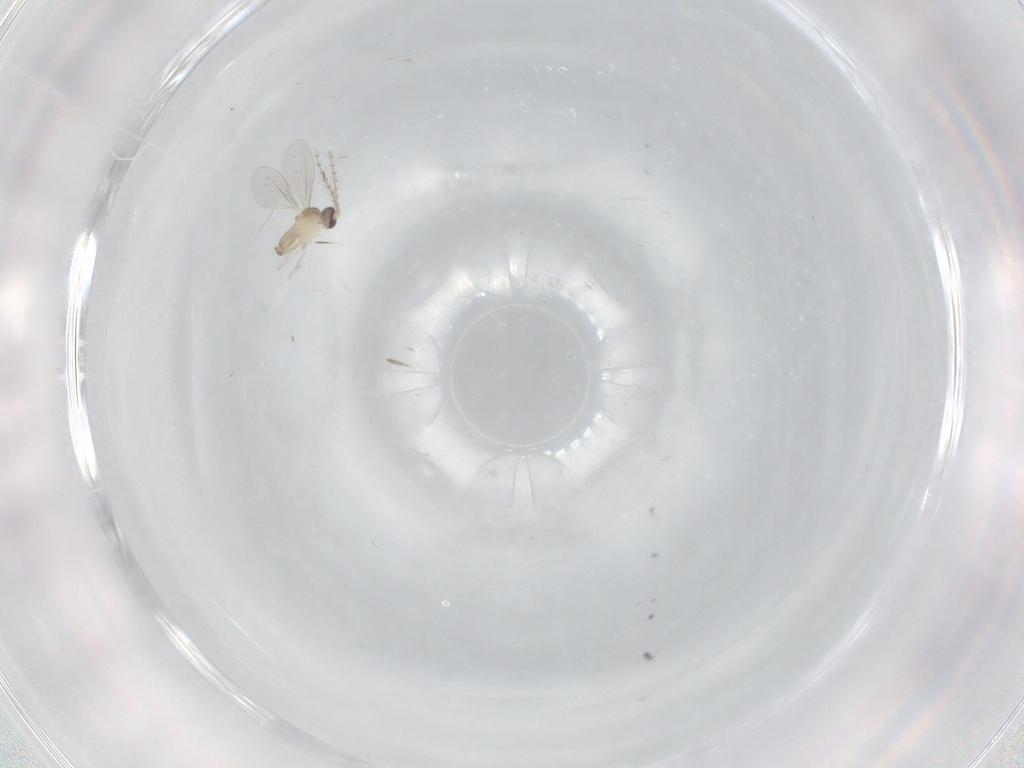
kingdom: Animalia
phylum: Arthropoda
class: Insecta
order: Diptera
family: Cecidomyiidae
